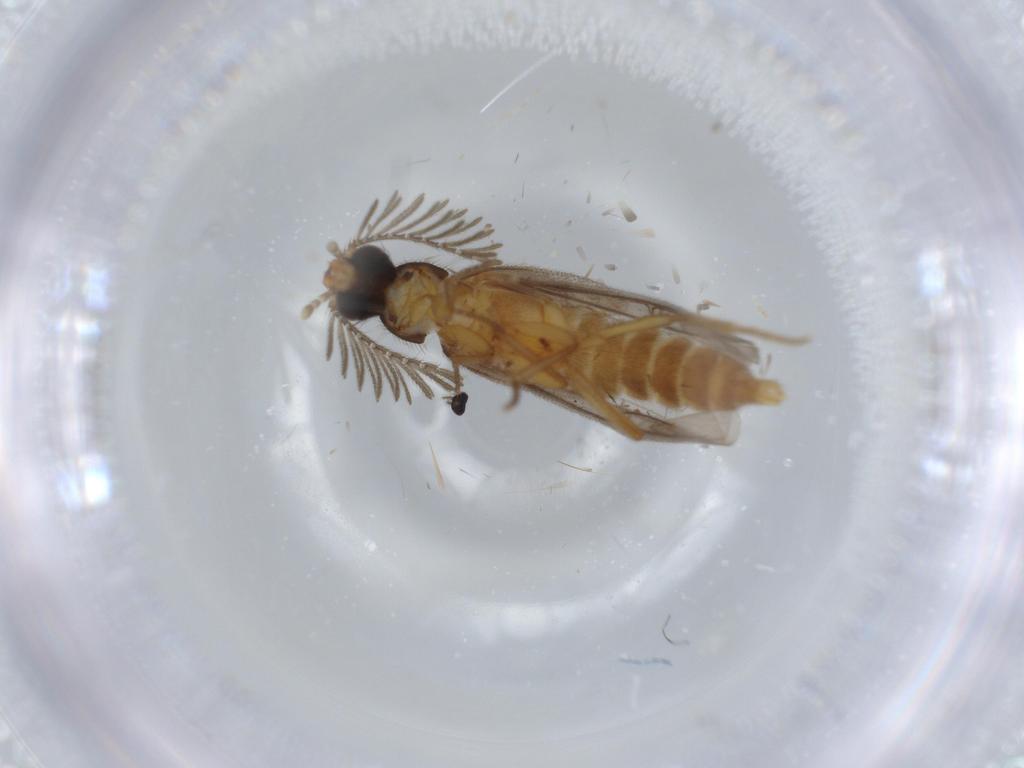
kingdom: Animalia
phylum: Arthropoda
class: Insecta
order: Coleoptera
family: Chrysomelidae
